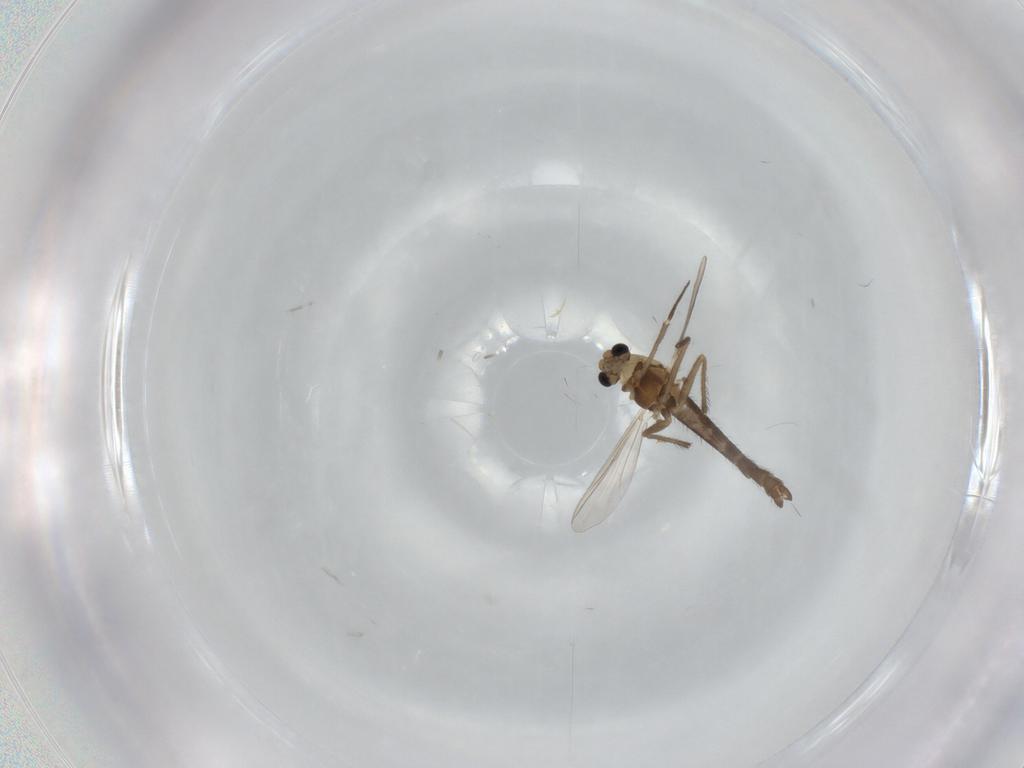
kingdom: Animalia
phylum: Arthropoda
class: Insecta
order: Diptera
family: Chironomidae
